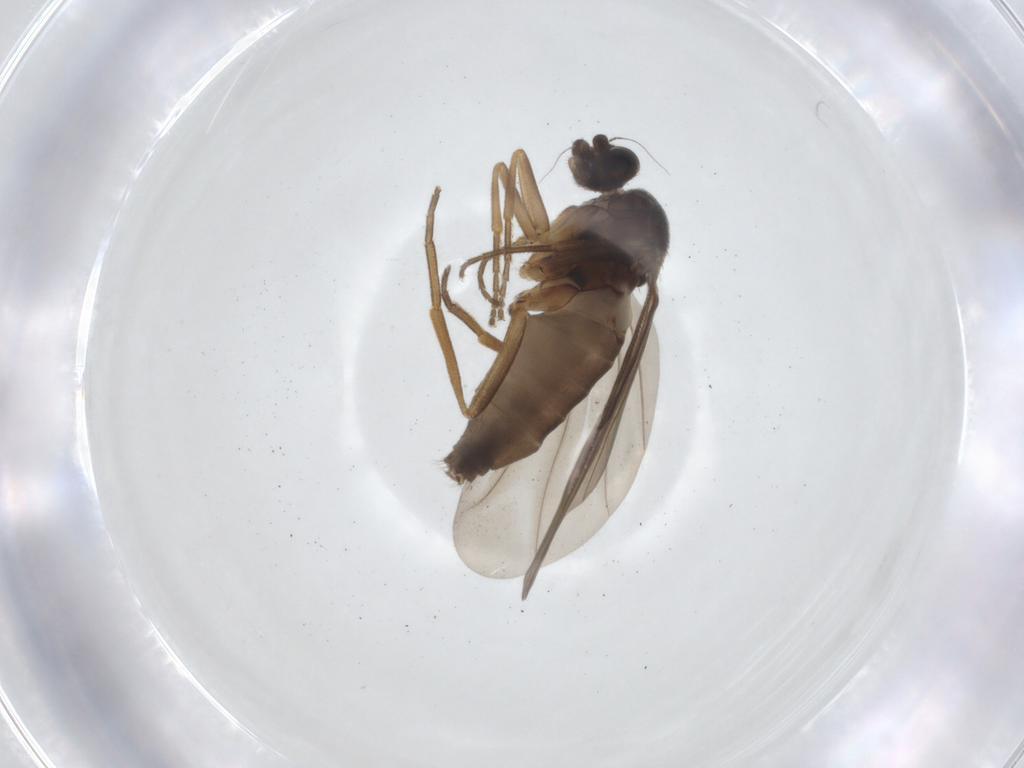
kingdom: Animalia
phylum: Arthropoda
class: Insecta
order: Diptera
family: Phoridae
